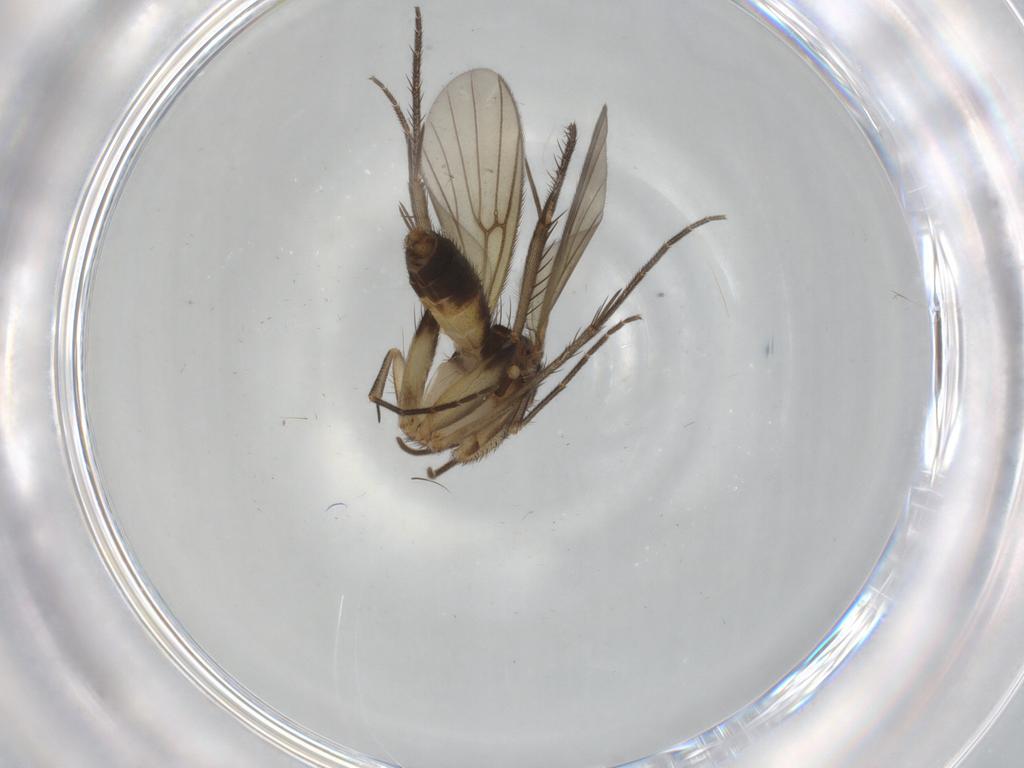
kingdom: Animalia
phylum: Arthropoda
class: Insecta
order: Diptera
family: Mycetophilidae
